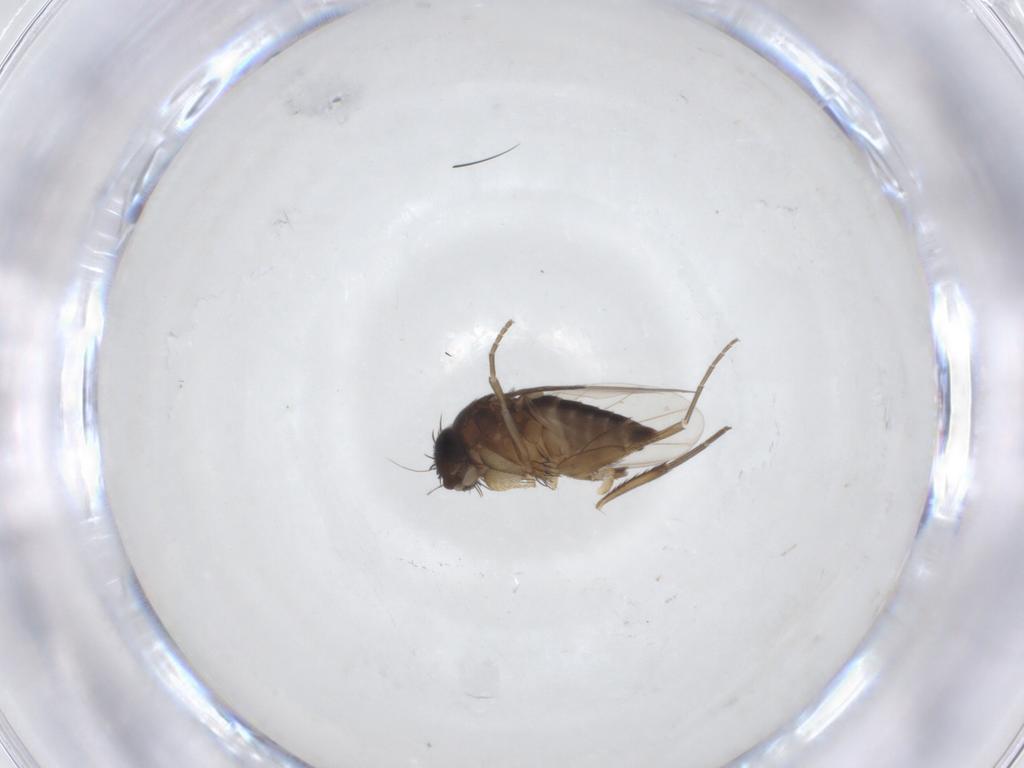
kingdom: Animalia
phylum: Arthropoda
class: Insecta
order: Diptera
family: Phoridae
